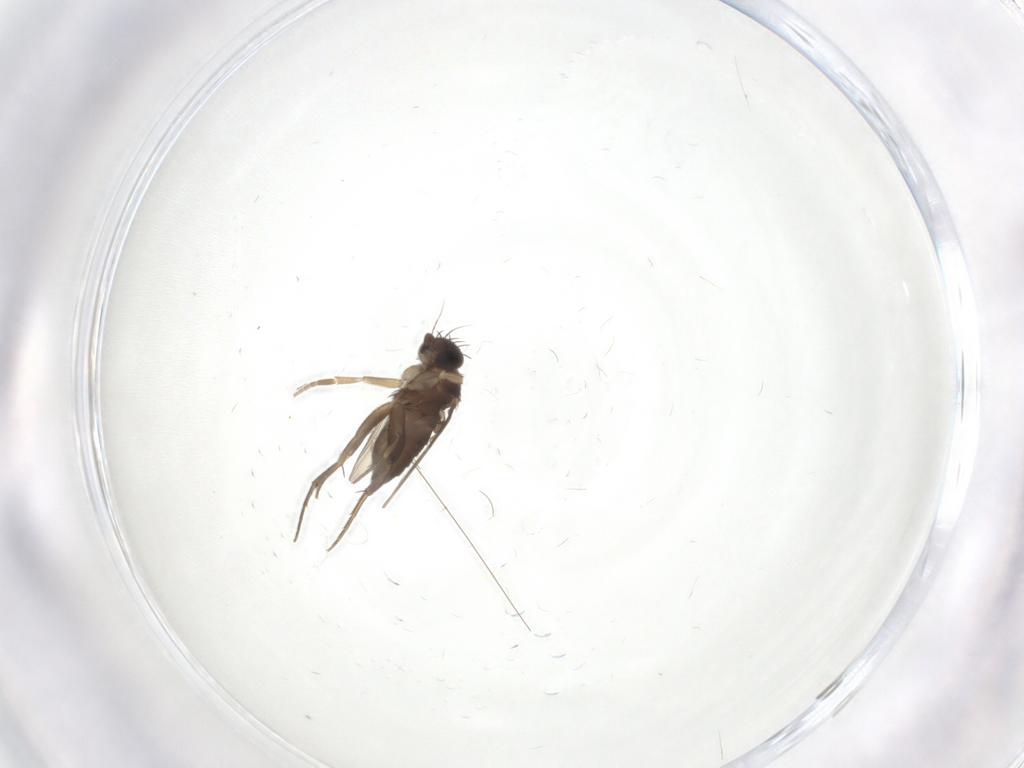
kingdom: Animalia
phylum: Arthropoda
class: Insecta
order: Diptera
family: Phoridae
